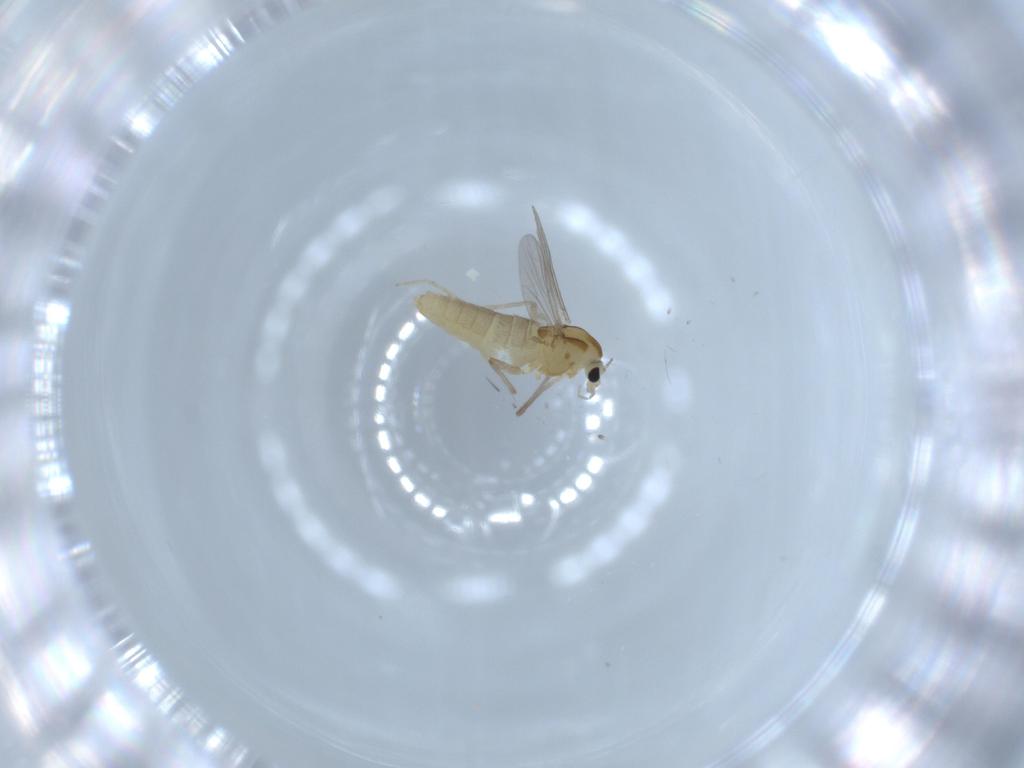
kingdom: Animalia
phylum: Arthropoda
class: Insecta
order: Diptera
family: Chironomidae
